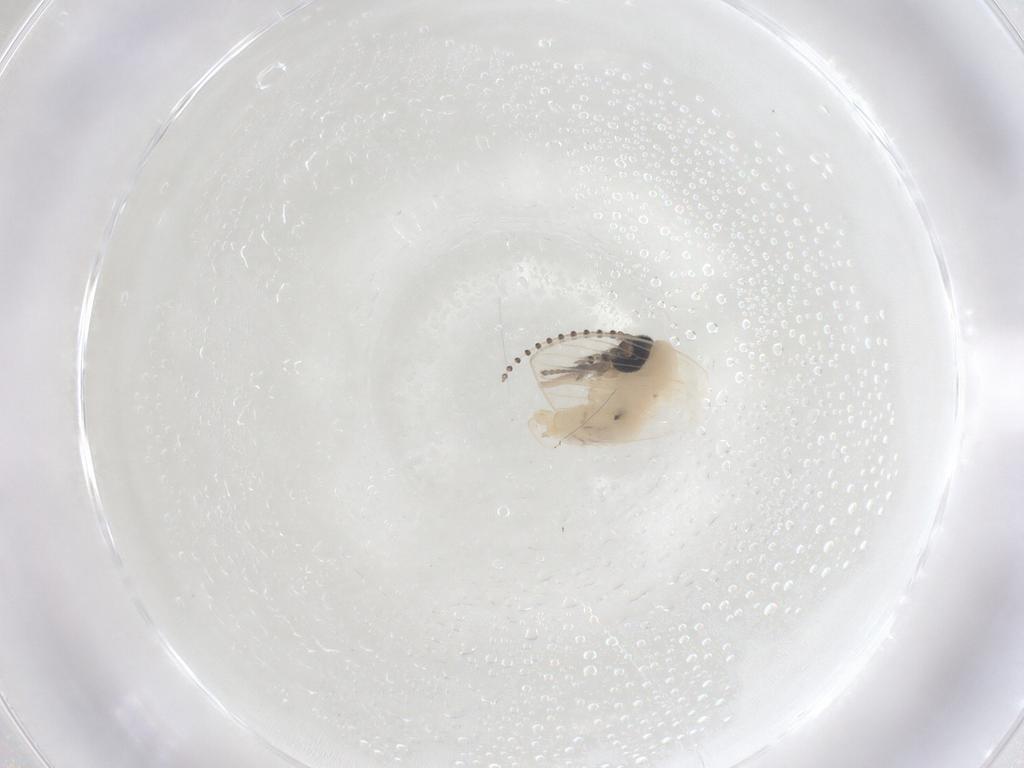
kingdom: Animalia
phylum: Arthropoda
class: Insecta
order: Diptera
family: Psychodidae
